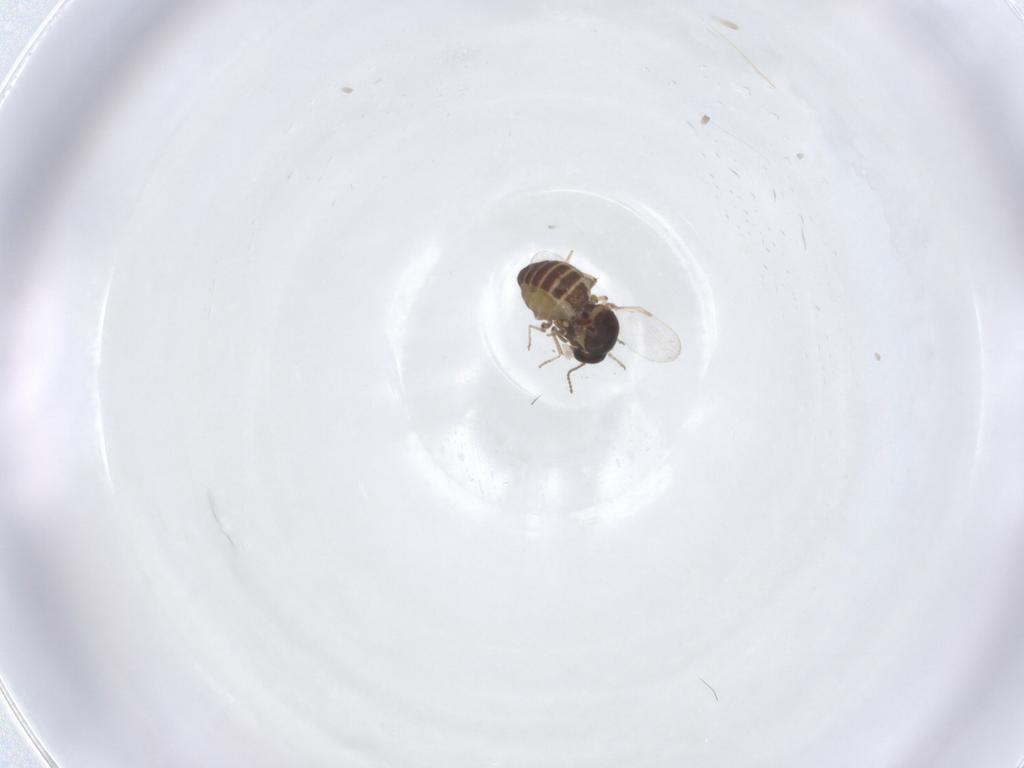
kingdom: Animalia
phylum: Arthropoda
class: Insecta
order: Diptera
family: Ceratopogonidae
